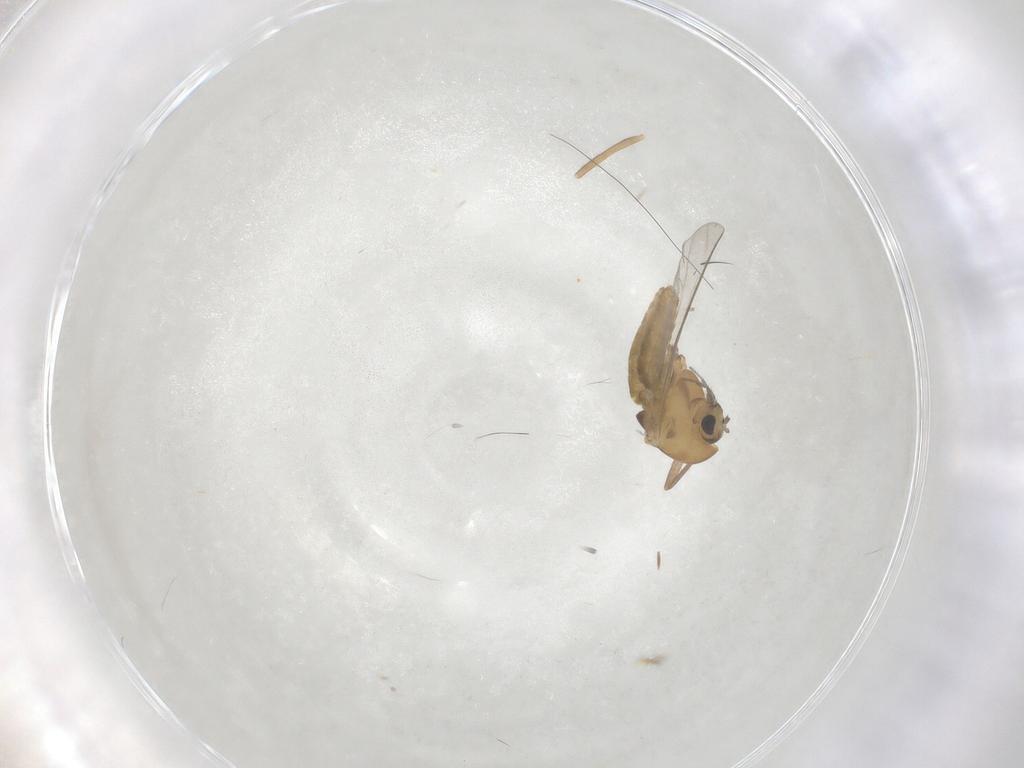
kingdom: Animalia
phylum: Arthropoda
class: Insecta
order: Diptera
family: Chironomidae
